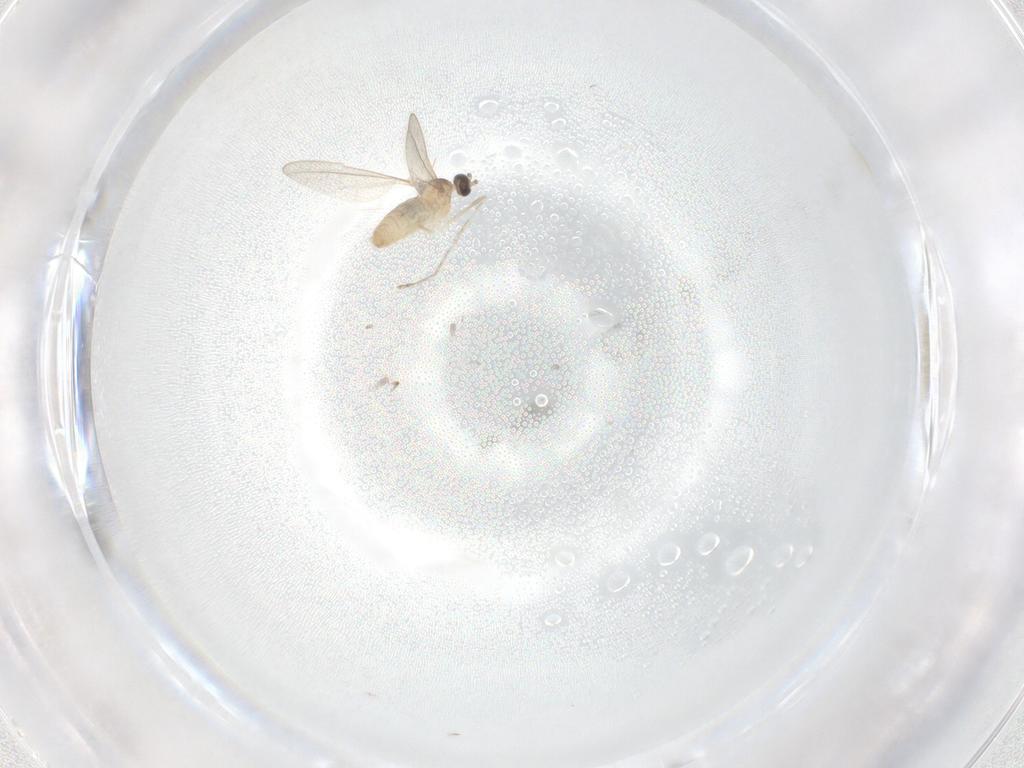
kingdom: Animalia
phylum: Arthropoda
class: Insecta
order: Diptera
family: Cecidomyiidae
